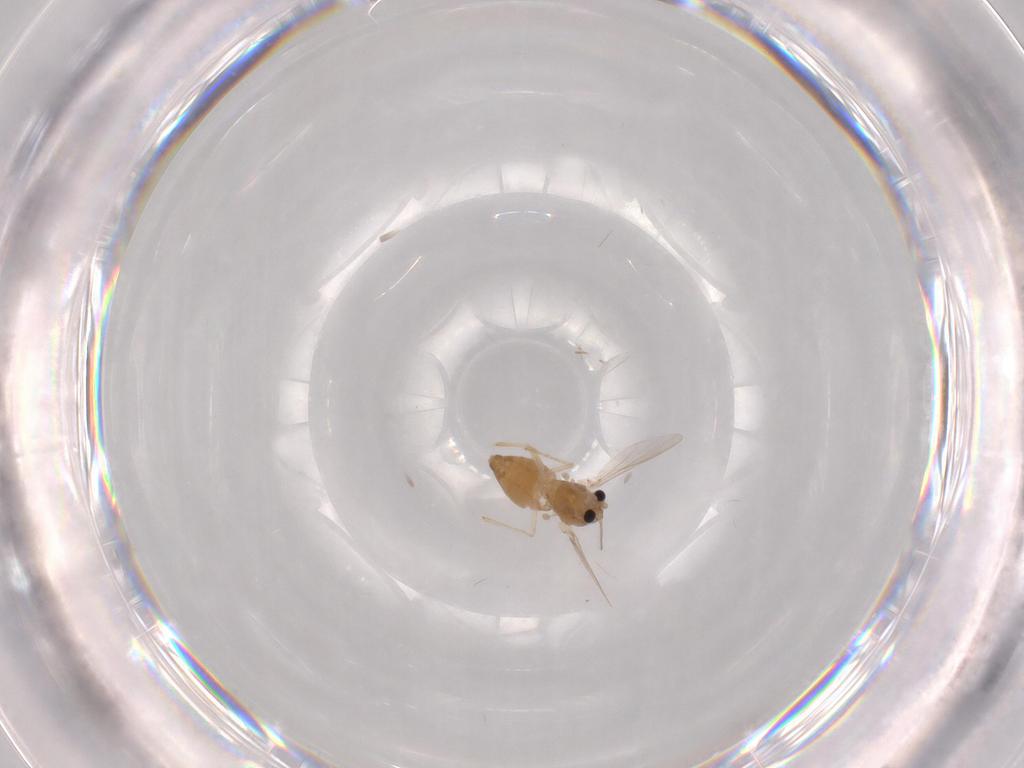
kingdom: Animalia
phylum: Arthropoda
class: Insecta
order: Diptera
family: Chironomidae
